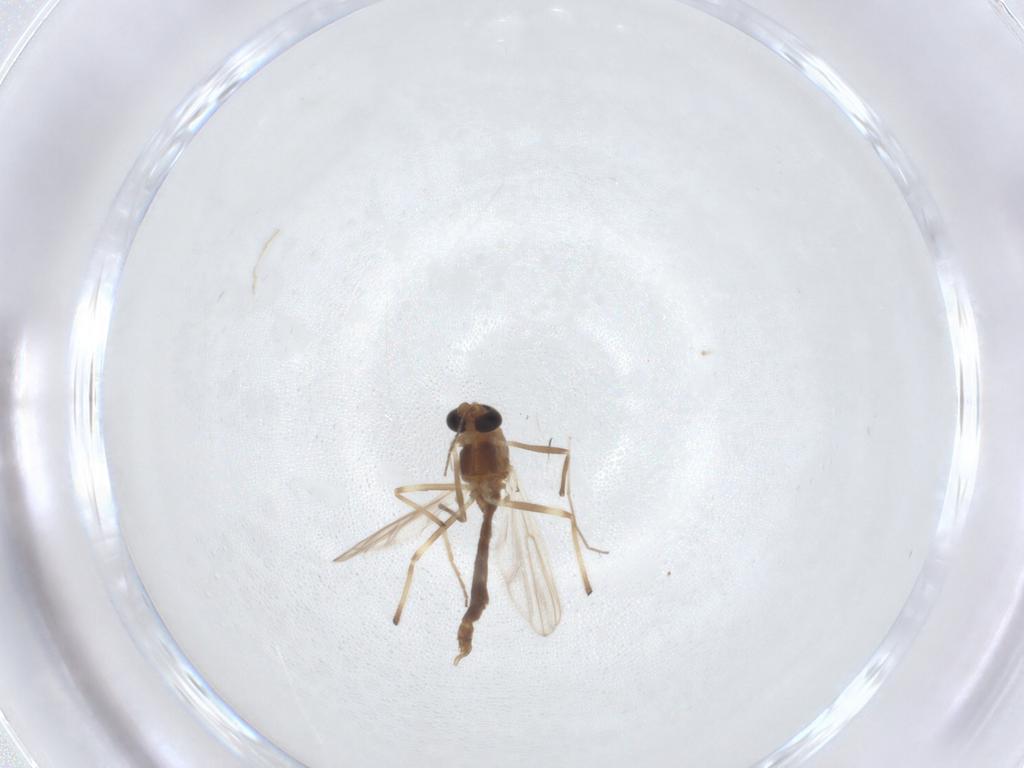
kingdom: Animalia
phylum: Arthropoda
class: Insecta
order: Diptera
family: Chironomidae
